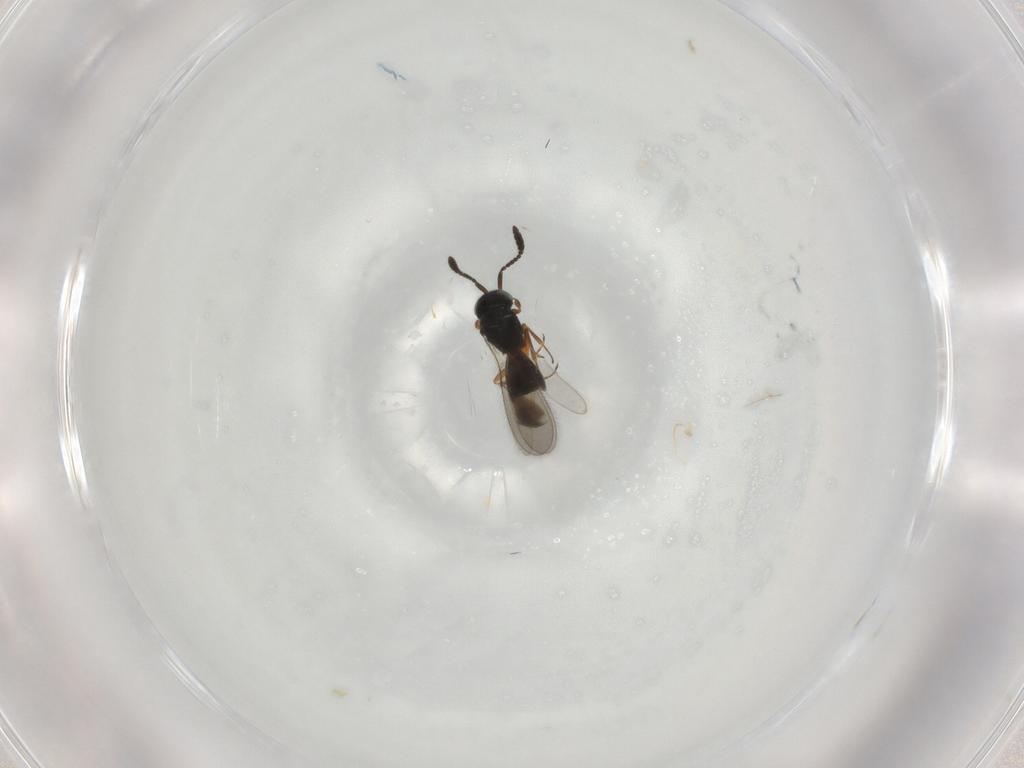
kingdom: Animalia
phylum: Arthropoda
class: Insecta
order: Hymenoptera
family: Scelionidae
